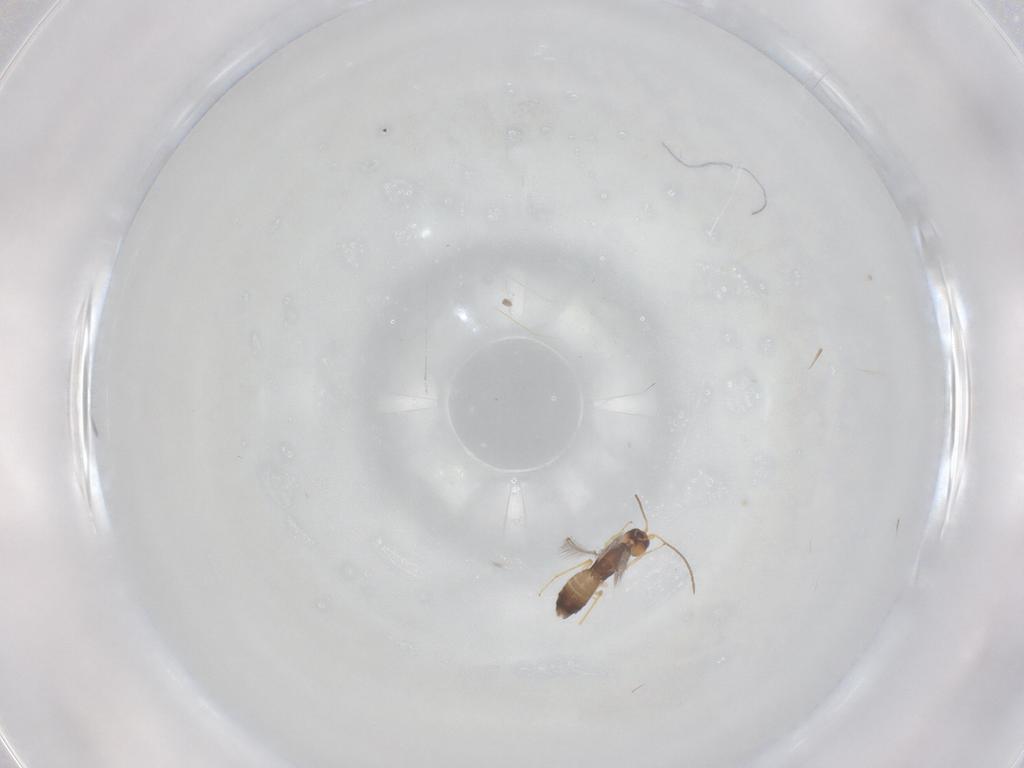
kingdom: Animalia
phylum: Arthropoda
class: Insecta
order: Hymenoptera
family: Mymaridae
